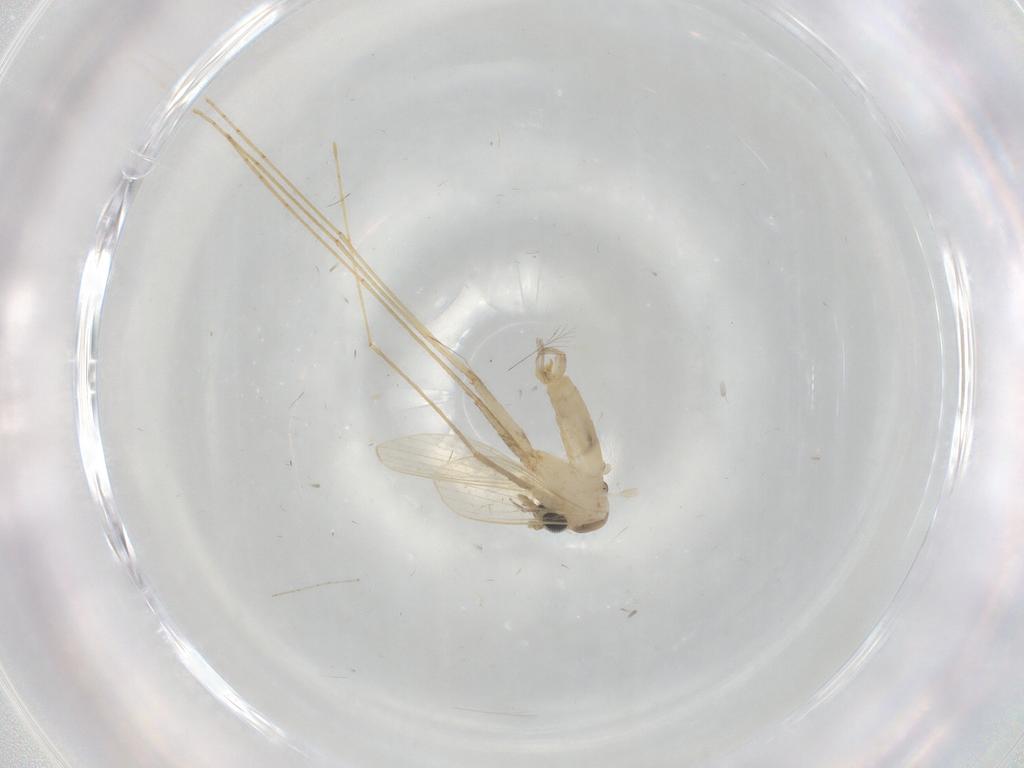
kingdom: Animalia
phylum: Arthropoda
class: Insecta
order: Diptera
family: Psychodidae
